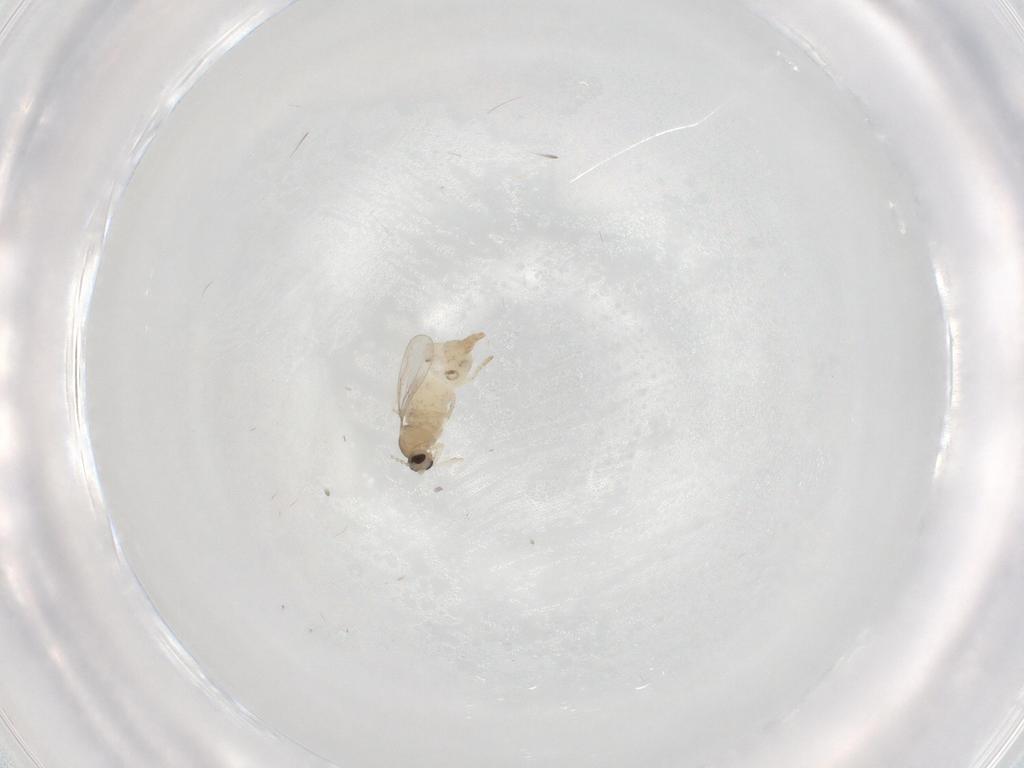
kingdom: Animalia
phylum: Arthropoda
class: Insecta
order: Diptera
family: Cecidomyiidae
